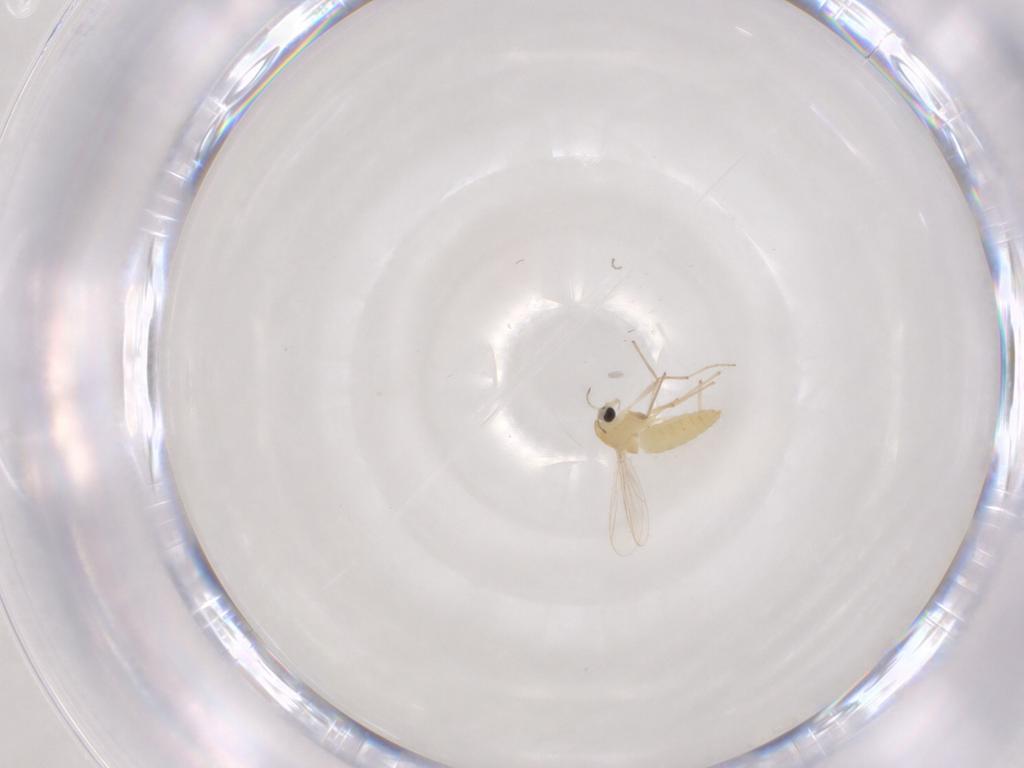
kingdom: Animalia
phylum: Arthropoda
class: Insecta
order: Diptera
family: Chironomidae
